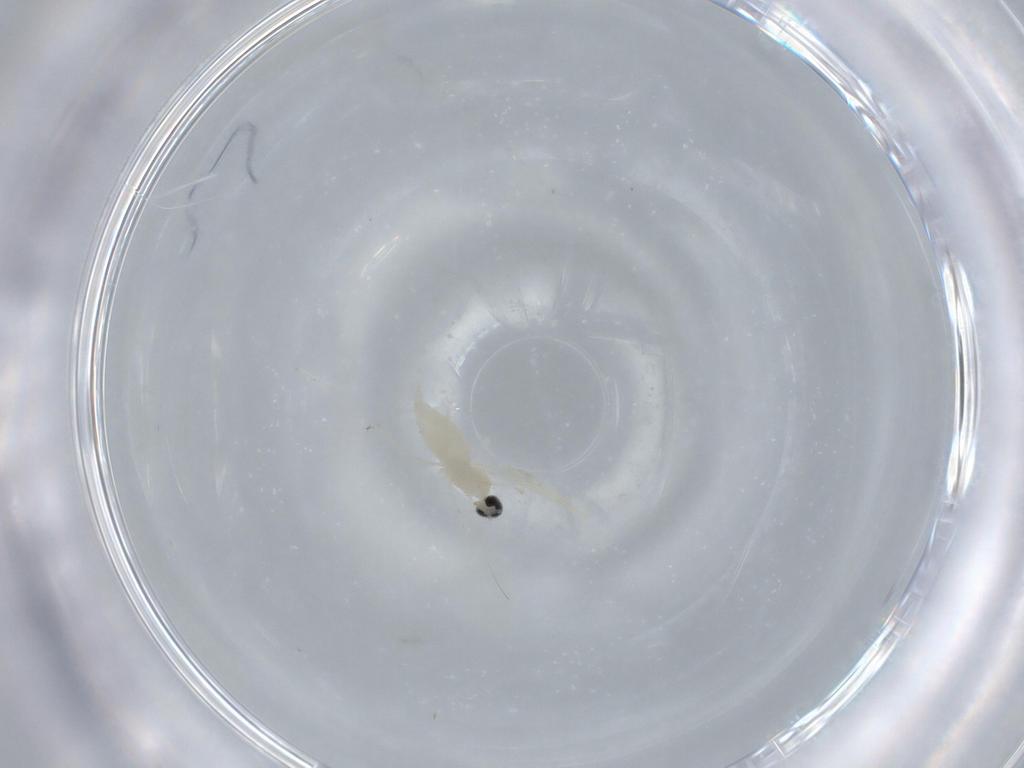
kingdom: Animalia
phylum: Arthropoda
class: Insecta
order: Diptera
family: Cecidomyiidae
